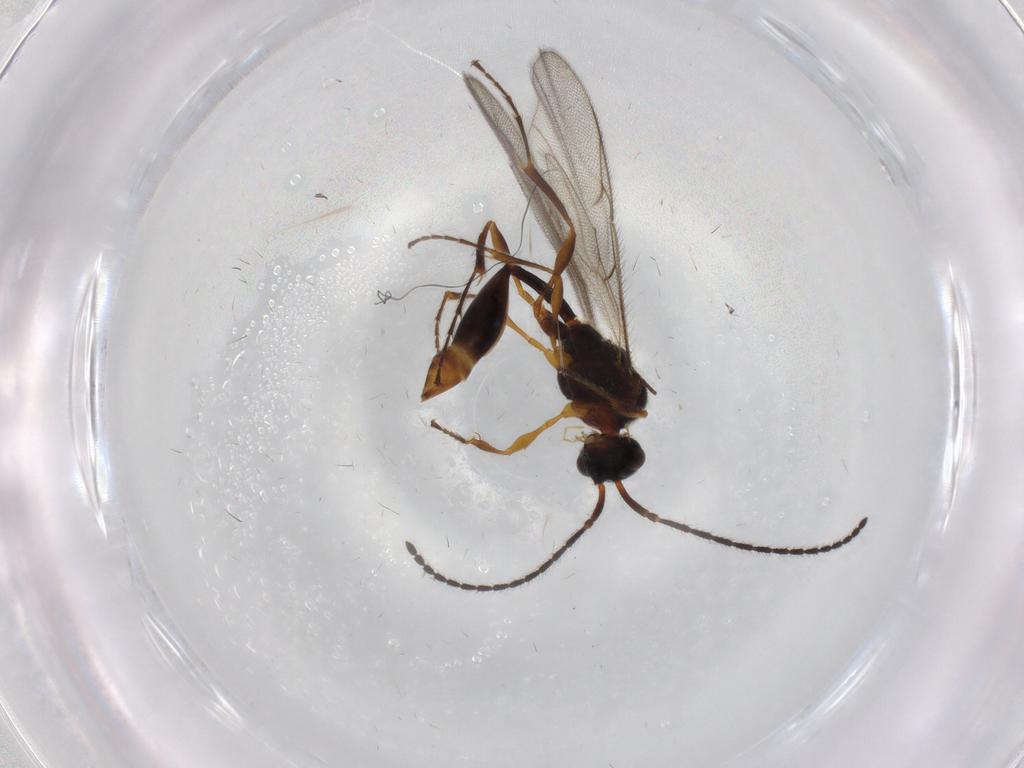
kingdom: Animalia
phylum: Arthropoda
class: Insecta
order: Hymenoptera
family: Diapriidae
